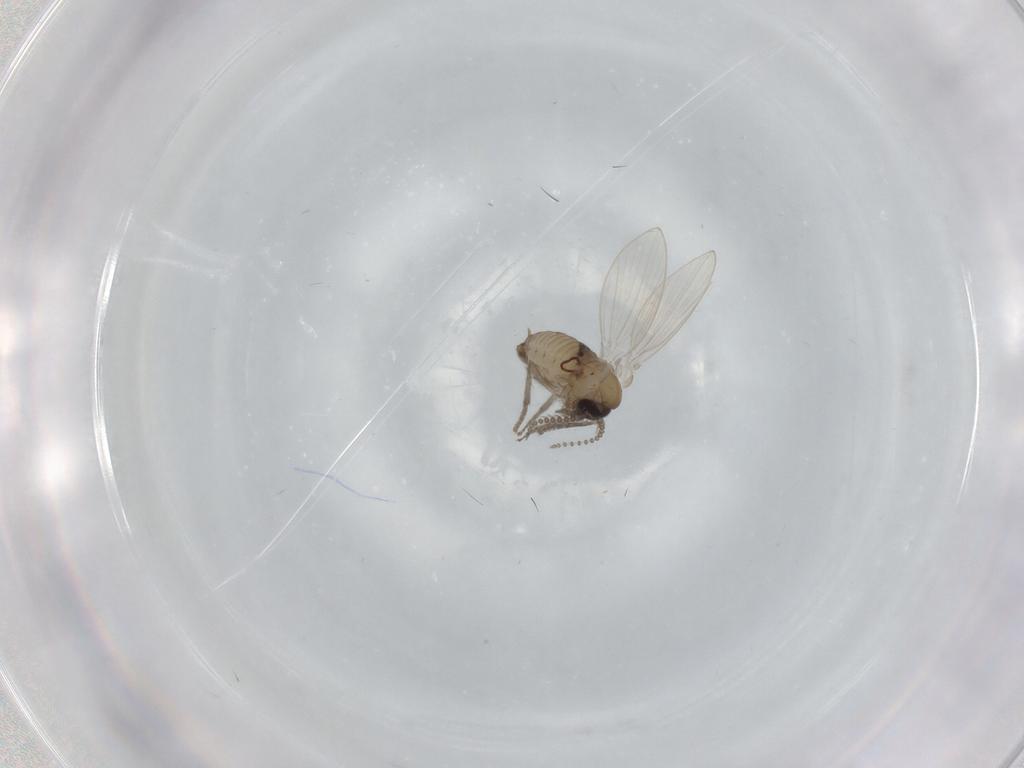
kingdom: Animalia
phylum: Arthropoda
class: Insecta
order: Diptera
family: Psychodidae
